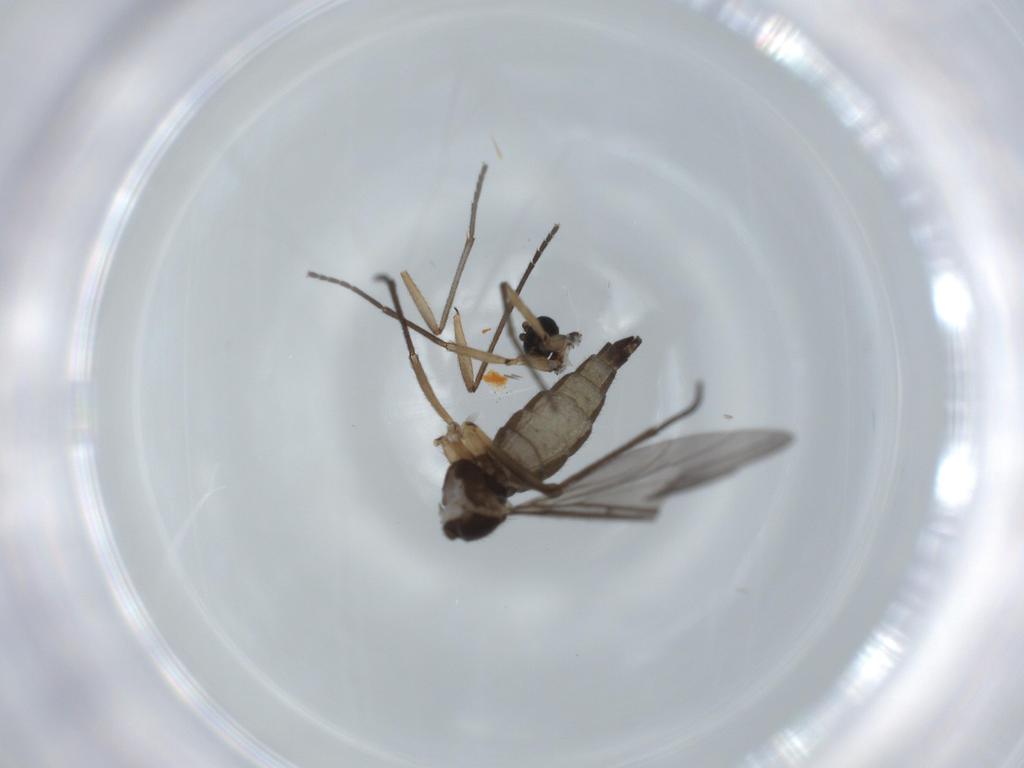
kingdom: Animalia
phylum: Arthropoda
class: Insecta
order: Diptera
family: Sciaridae
